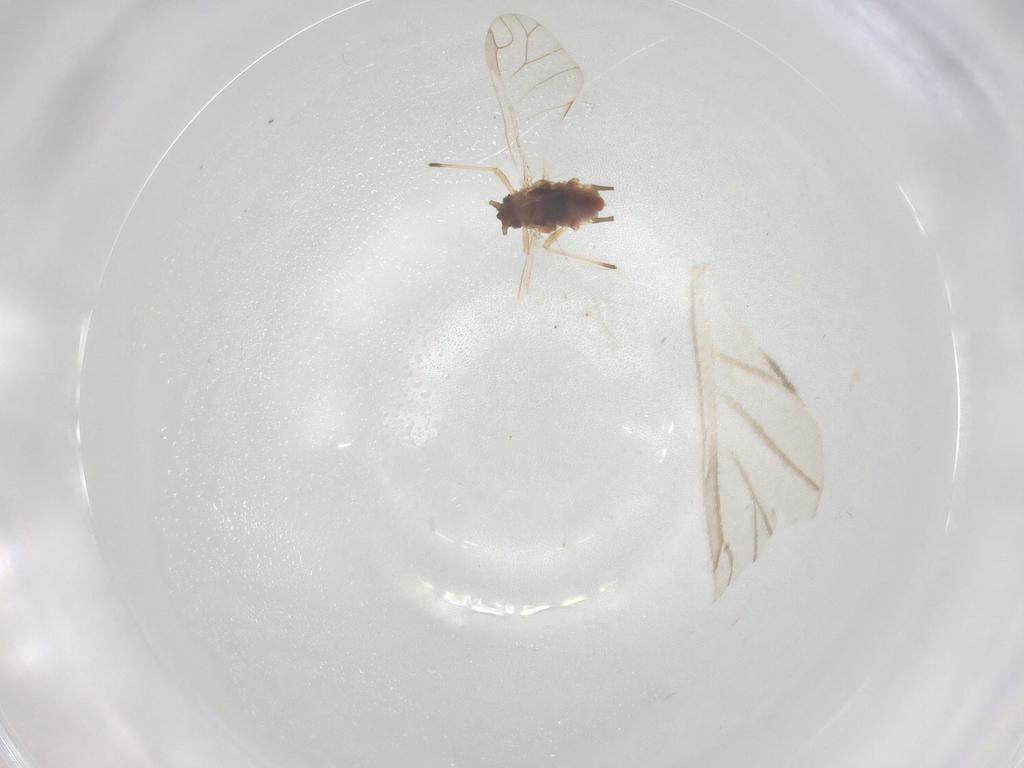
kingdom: Animalia
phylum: Arthropoda
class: Insecta
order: Hemiptera
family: Aphididae
